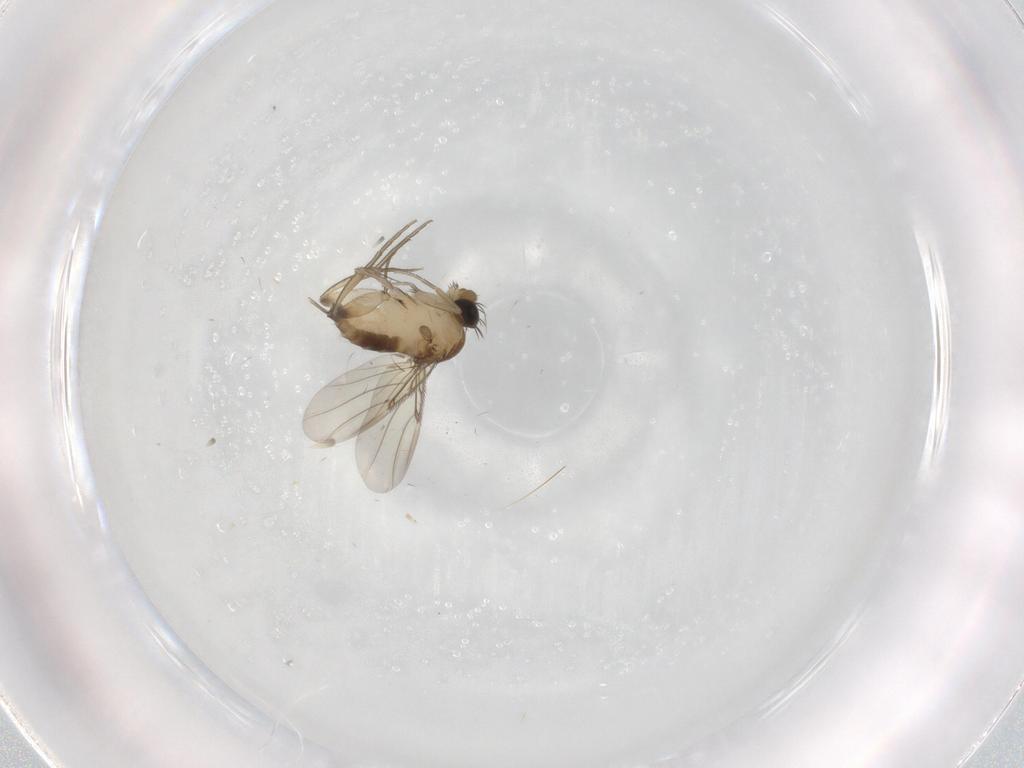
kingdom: Animalia
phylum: Arthropoda
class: Insecta
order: Diptera
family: Phoridae
